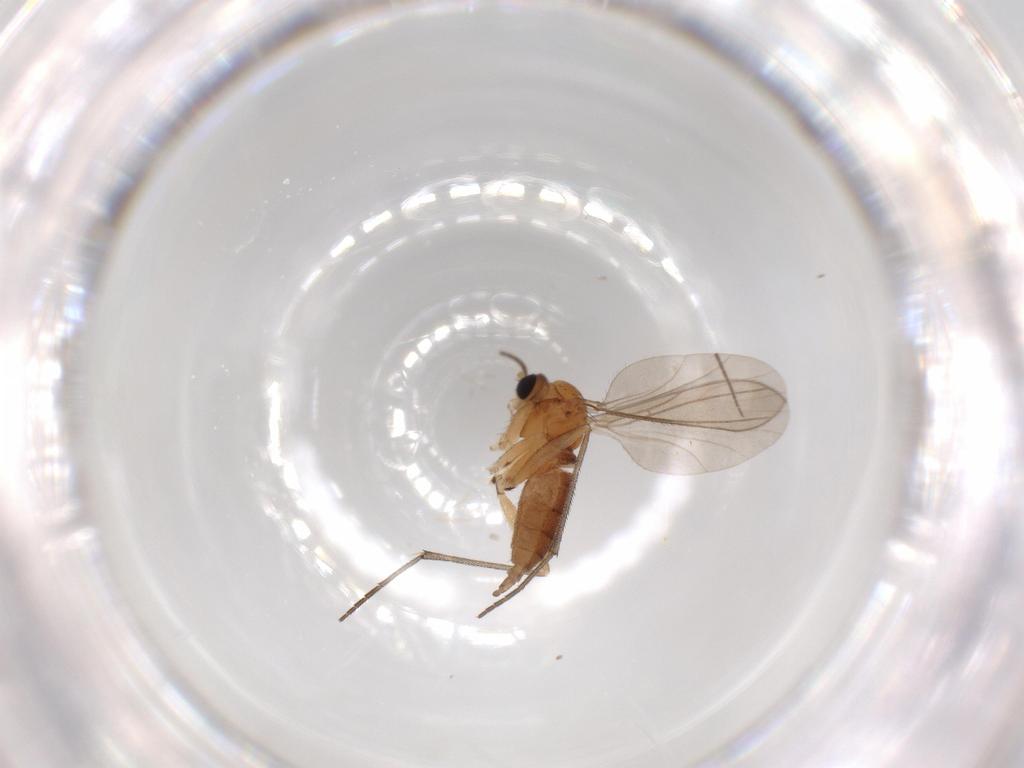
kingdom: Animalia
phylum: Arthropoda
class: Insecta
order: Diptera
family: Sciaridae
